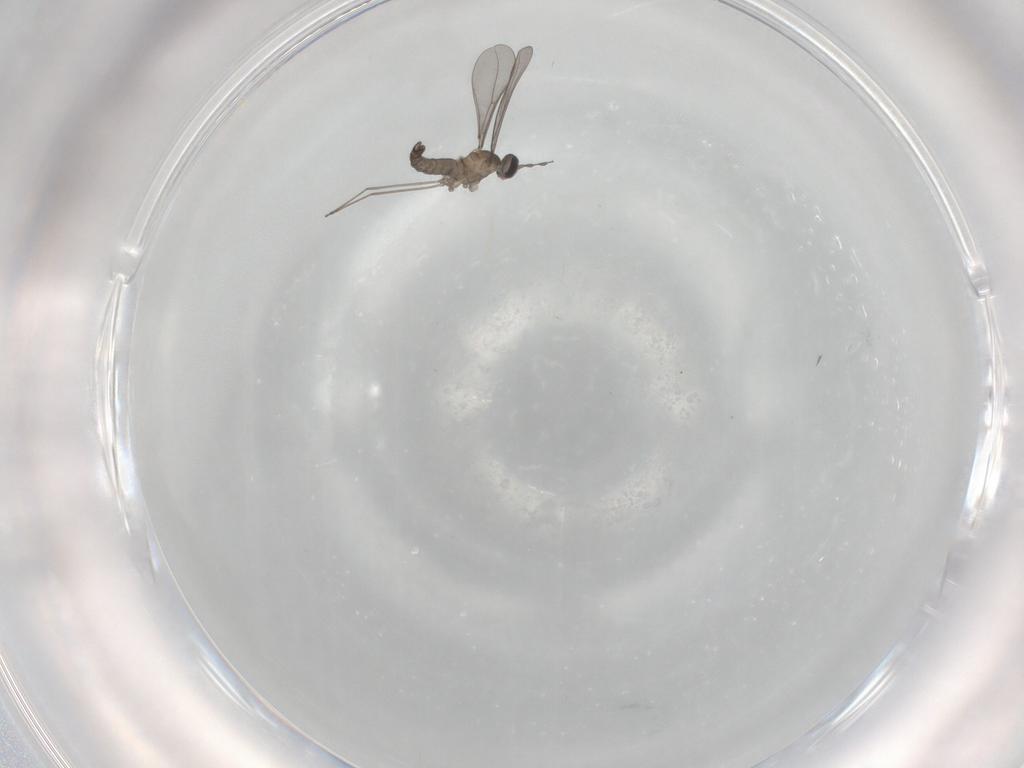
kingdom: Animalia
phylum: Arthropoda
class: Insecta
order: Diptera
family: Cecidomyiidae
